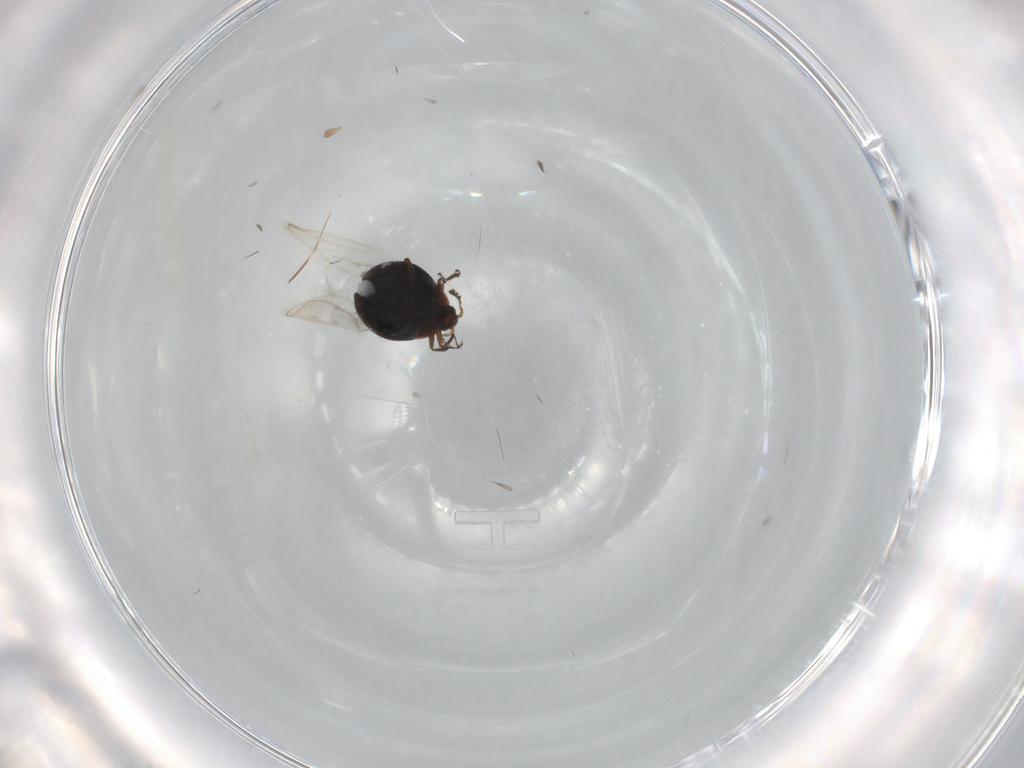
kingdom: Animalia
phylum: Arthropoda
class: Insecta
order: Coleoptera
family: Corylophidae
